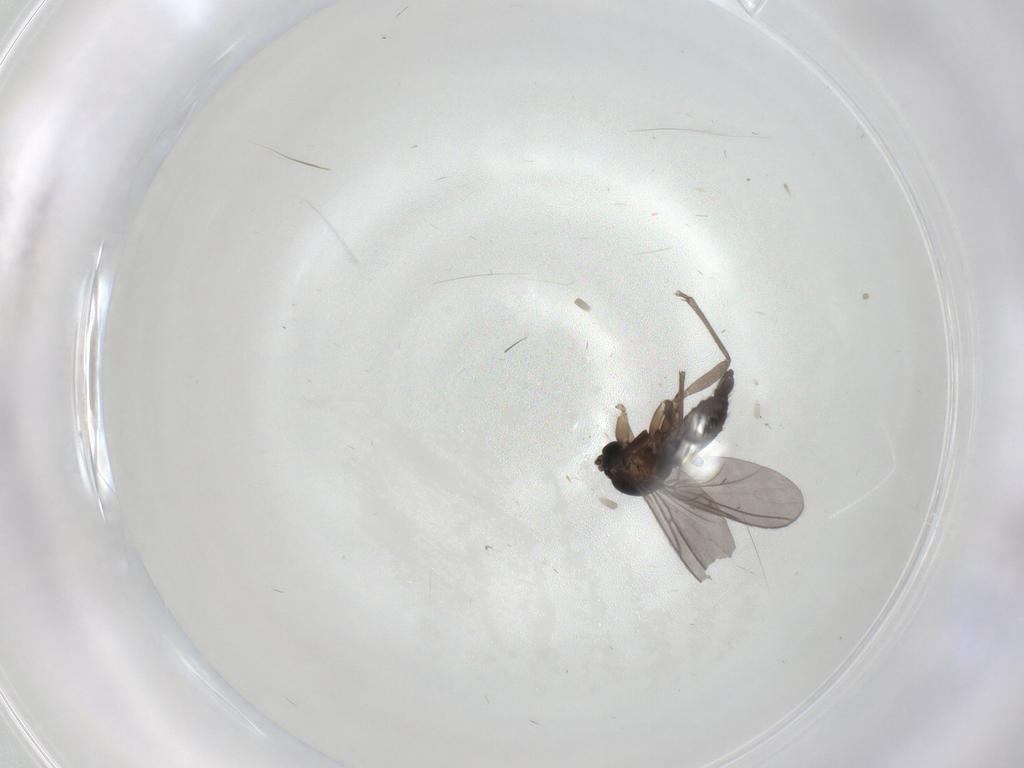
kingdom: Animalia
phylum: Arthropoda
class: Insecta
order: Diptera
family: Sciaridae
